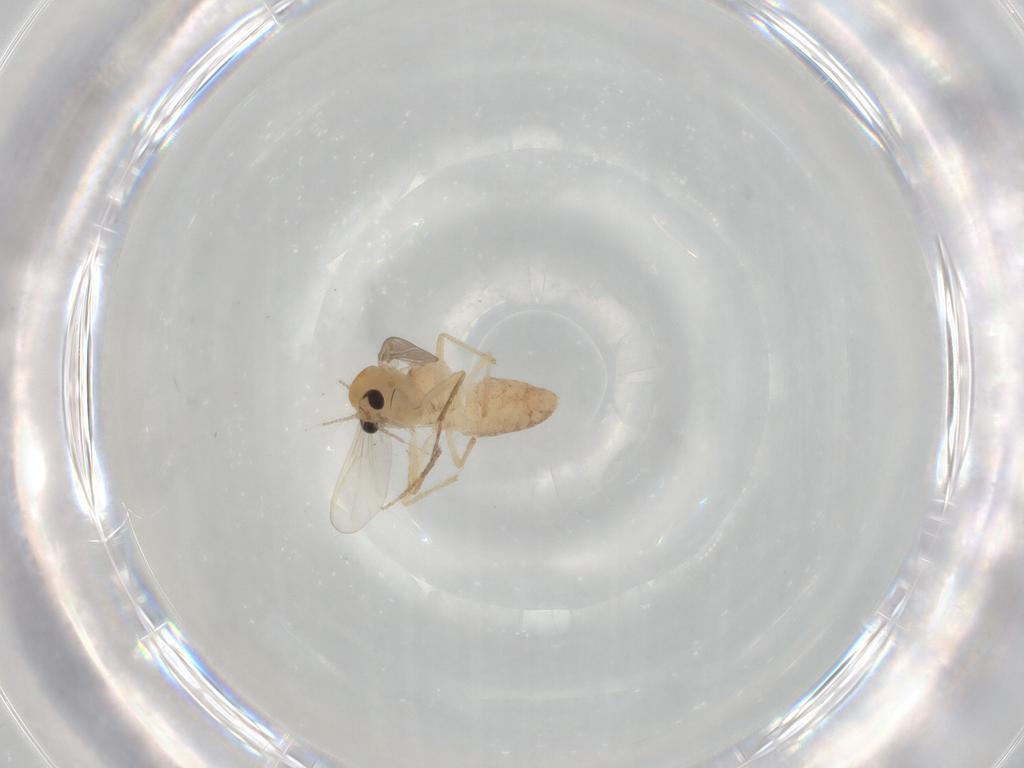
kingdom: Animalia
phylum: Arthropoda
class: Insecta
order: Diptera
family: Chironomidae
